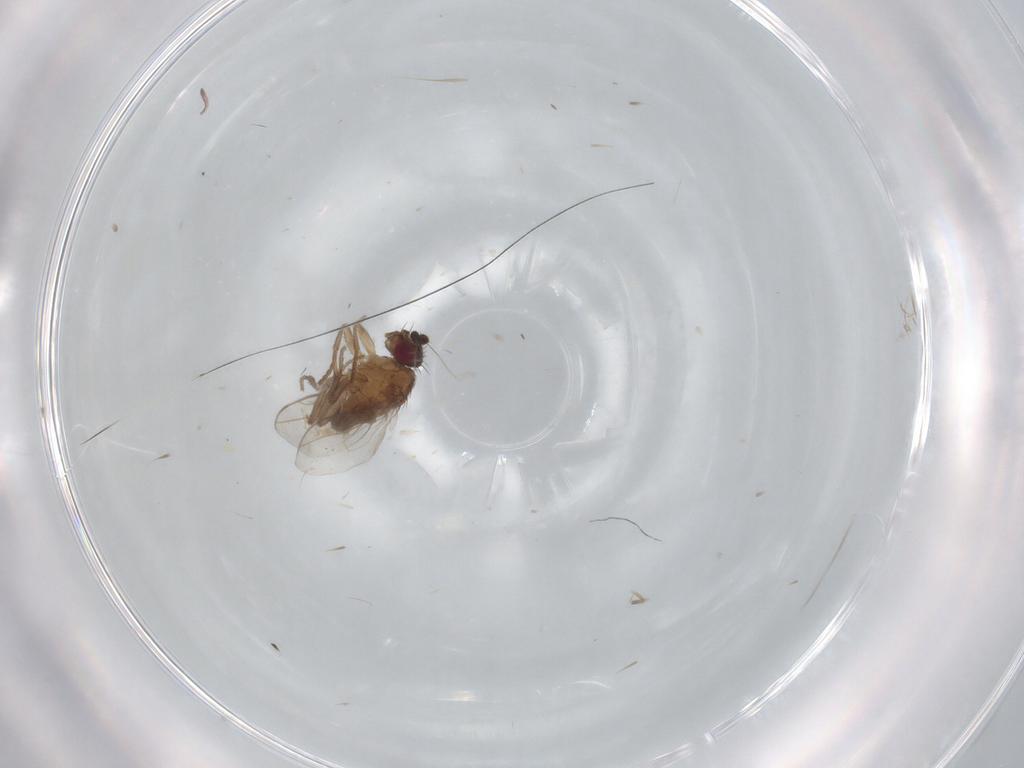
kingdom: Animalia
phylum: Arthropoda
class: Insecta
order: Diptera
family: Sphaeroceridae
